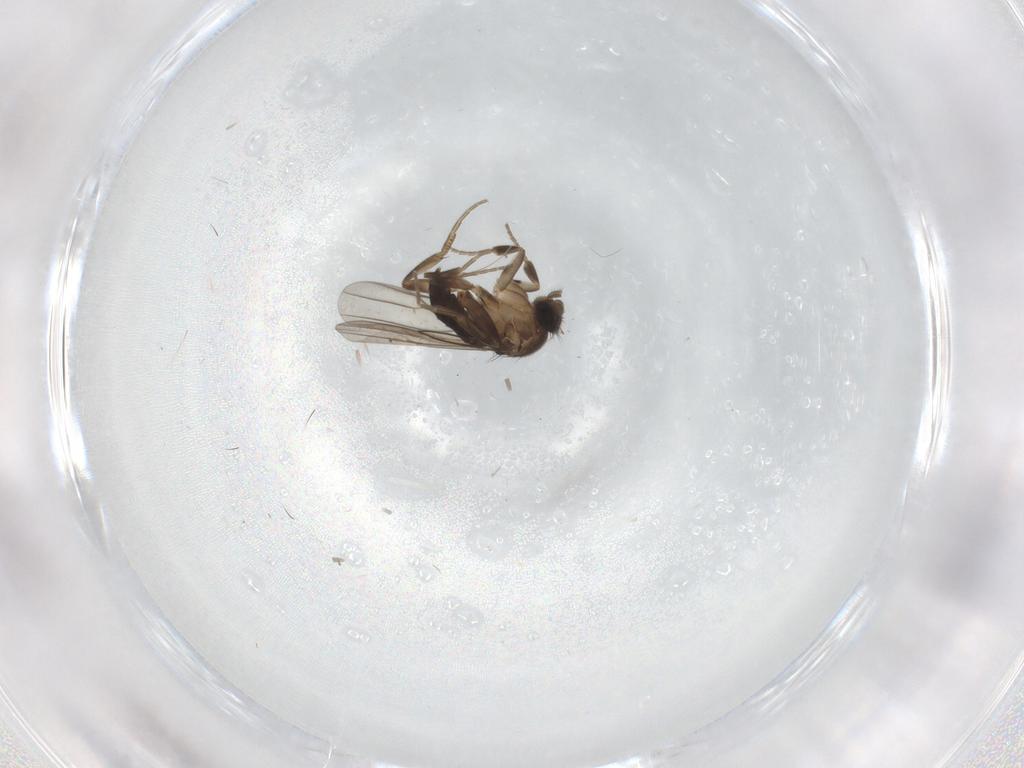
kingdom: Animalia
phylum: Arthropoda
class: Insecta
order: Diptera
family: Phoridae
